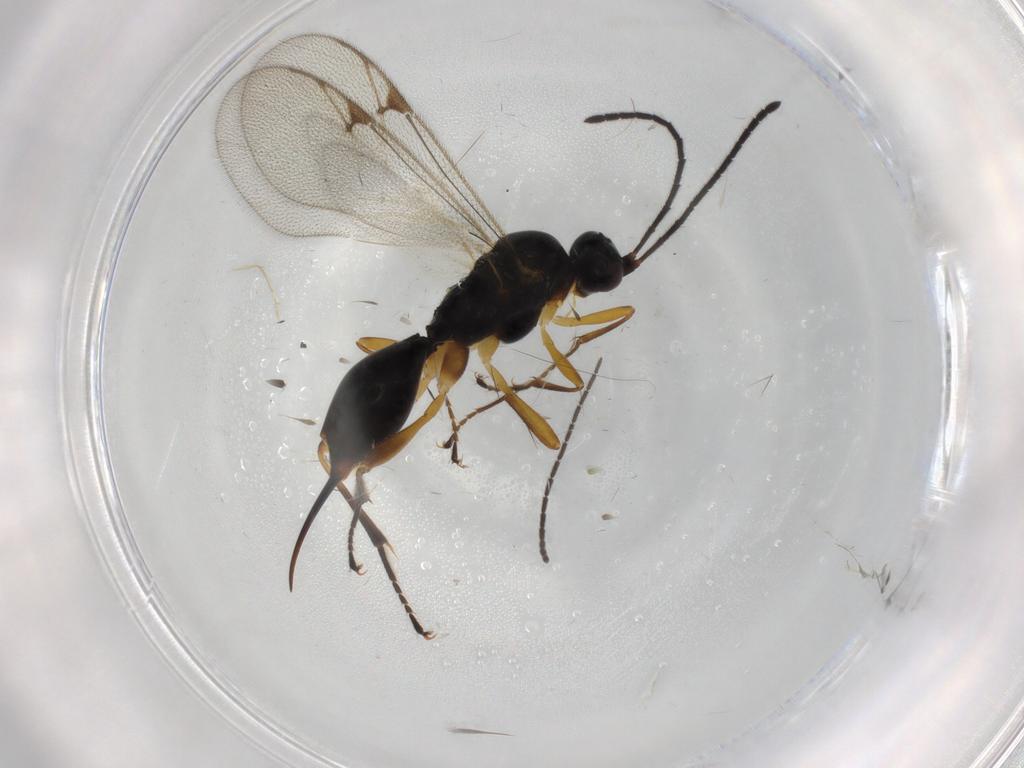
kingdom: Animalia
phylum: Arthropoda
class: Insecta
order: Hymenoptera
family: Proctotrupidae
